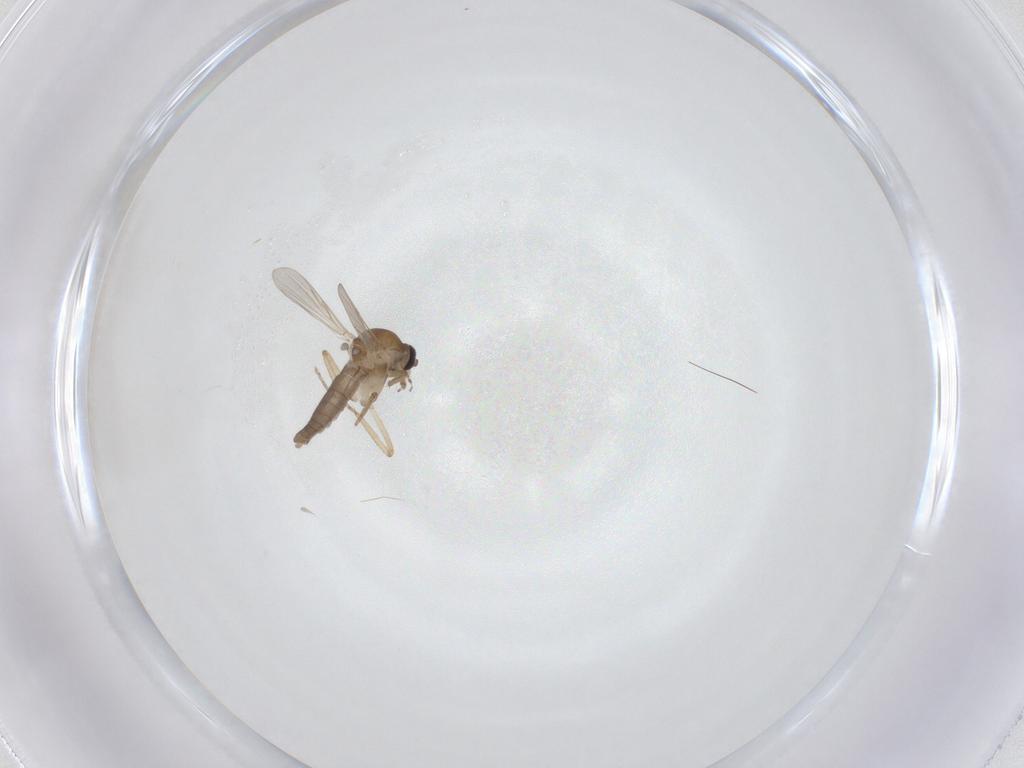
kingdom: Animalia
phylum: Arthropoda
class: Insecta
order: Diptera
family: Ceratopogonidae
